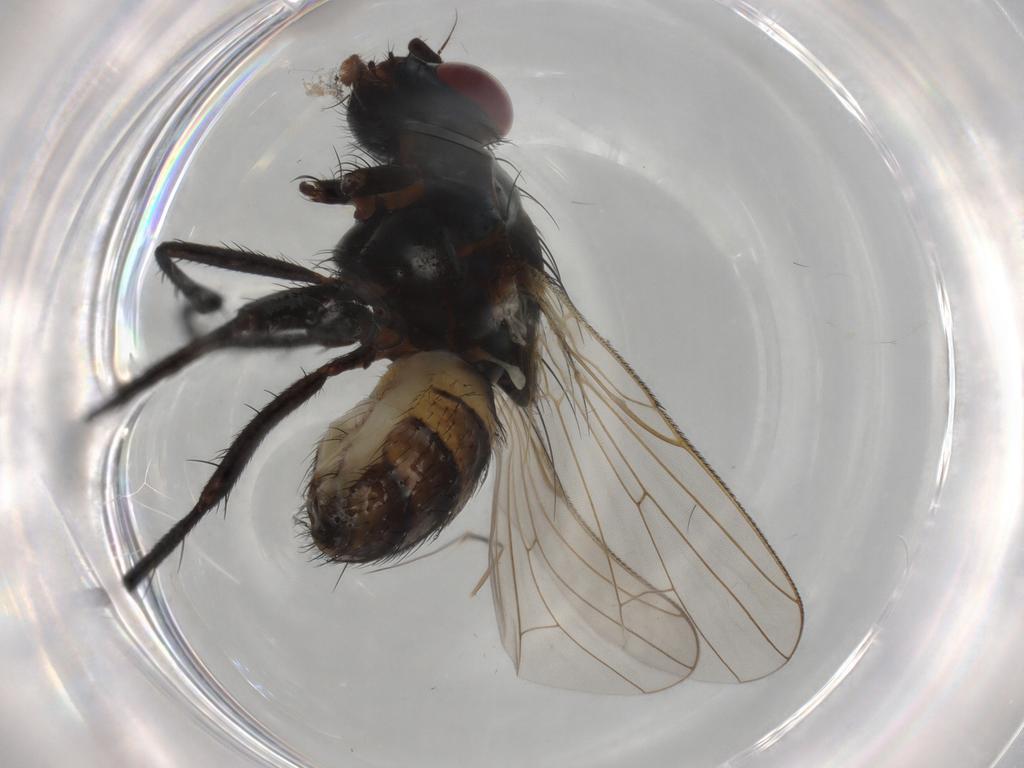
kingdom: Animalia
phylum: Arthropoda
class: Insecta
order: Diptera
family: Anthomyiidae
